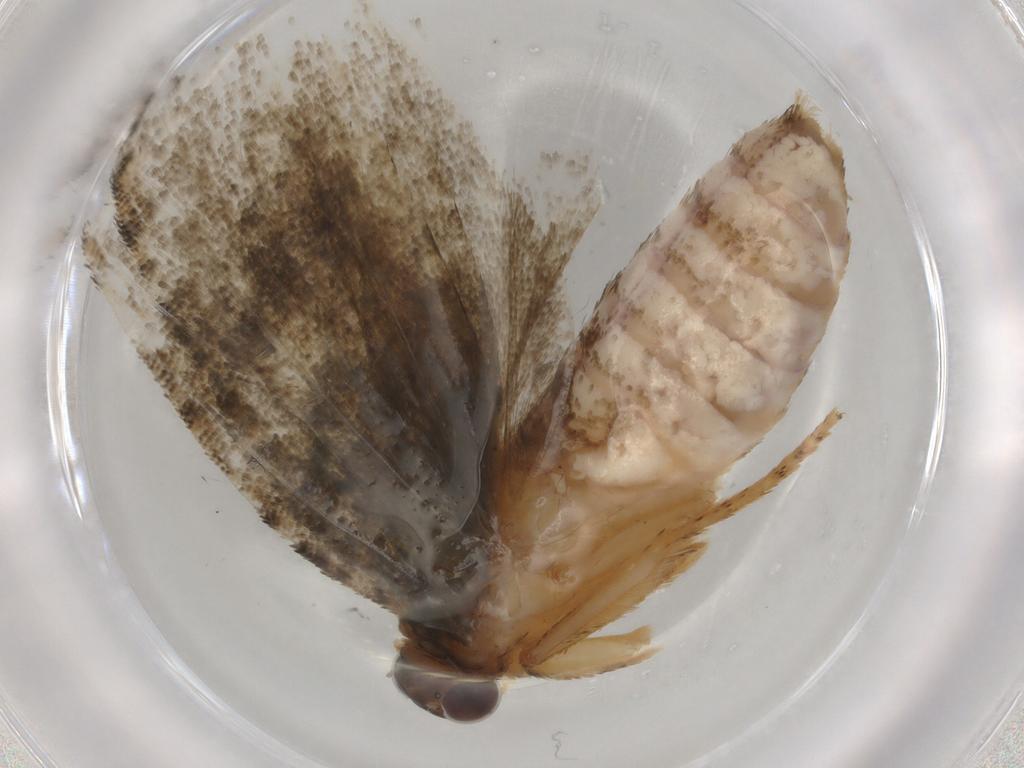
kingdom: Animalia
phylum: Arthropoda
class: Insecta
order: Lepidoptera
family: Tortricidae
